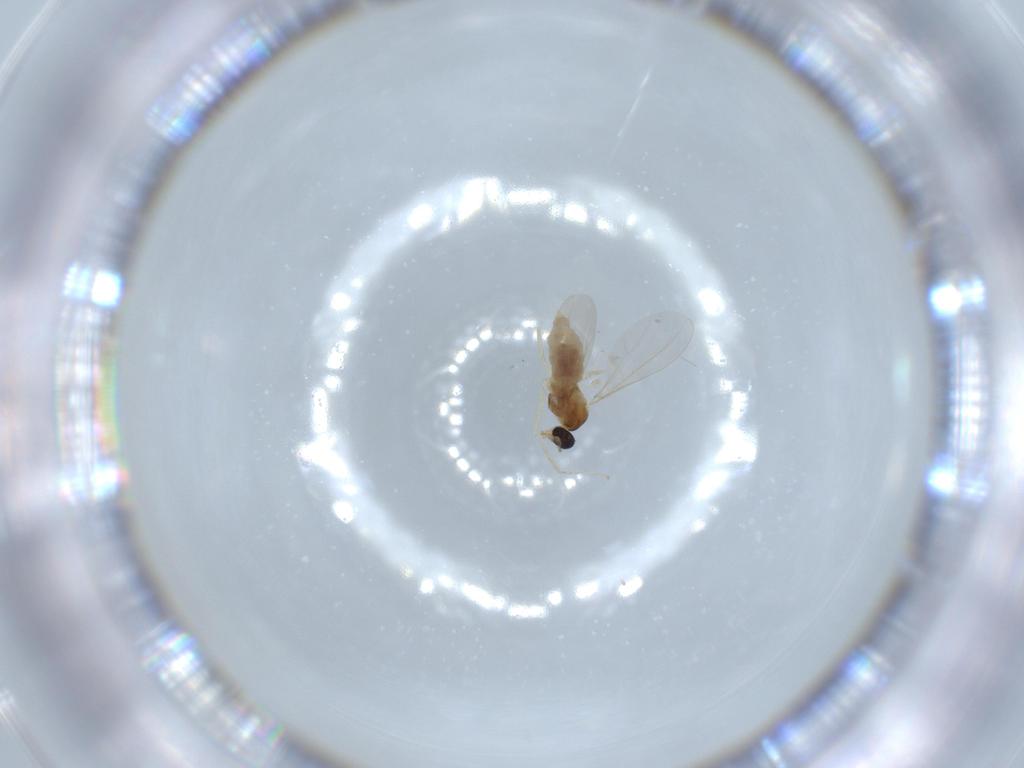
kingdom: Animalia
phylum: Arthropoda
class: Insecta
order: Diptera
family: Cecidomyiidae
